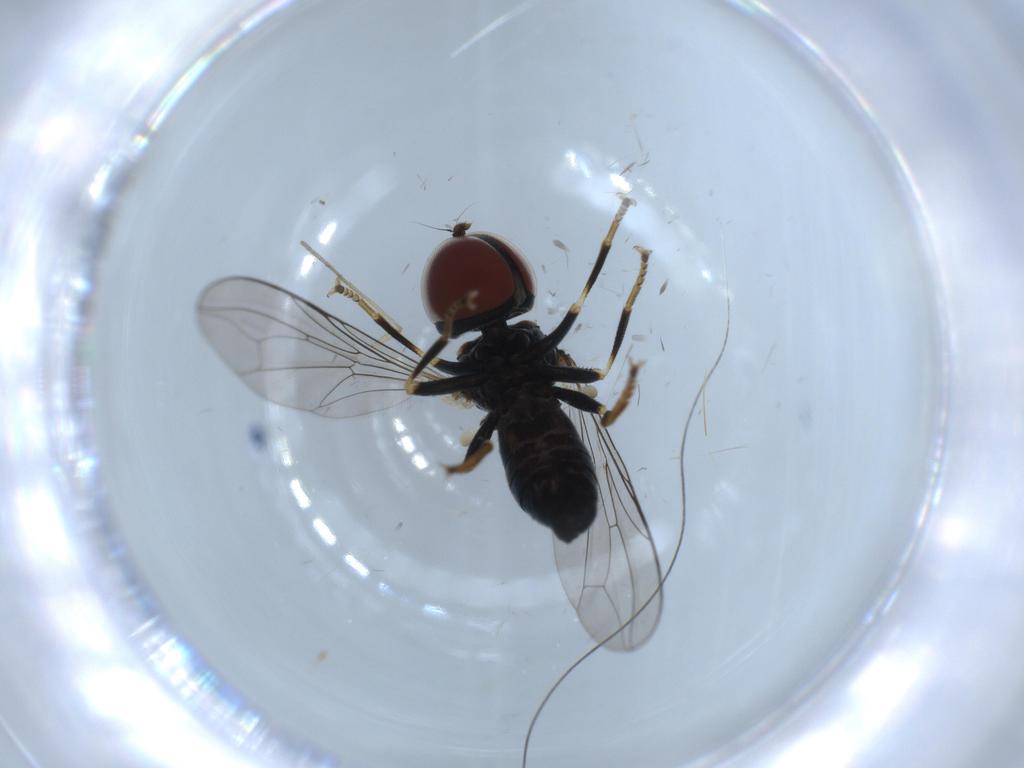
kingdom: Animalia
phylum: Arthropoda
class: Insecta
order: Diptera
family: Pipunculidae
